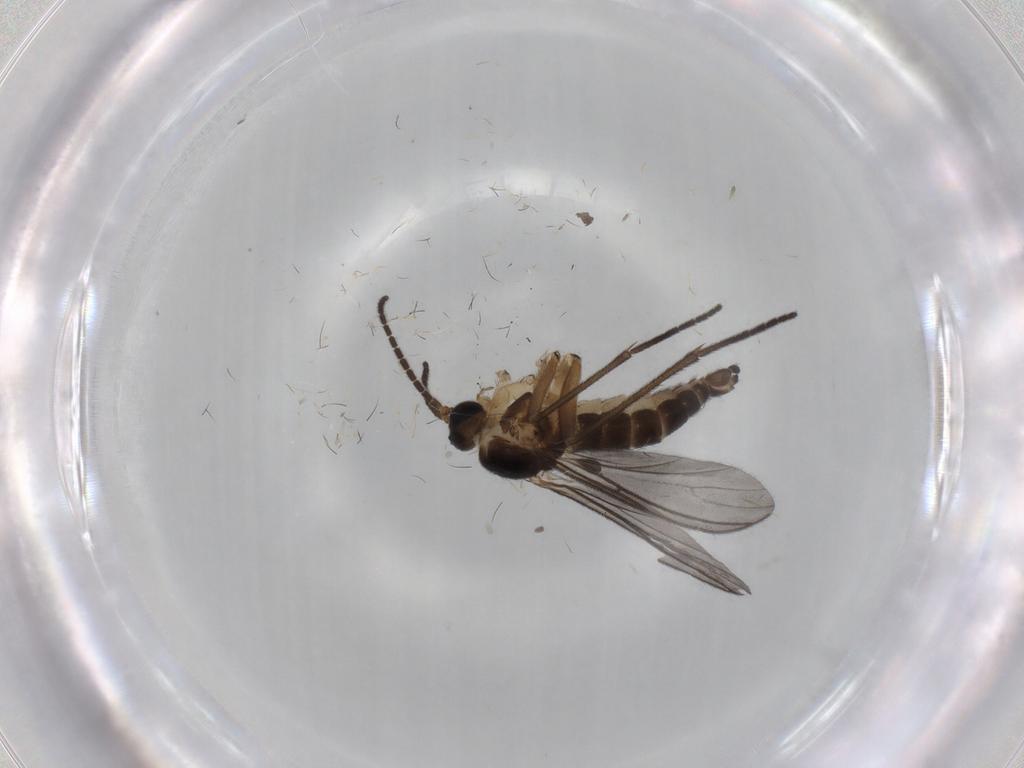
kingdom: Animalia
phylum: Arthropoda
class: Insecta
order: Diptera
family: Sciaridae
